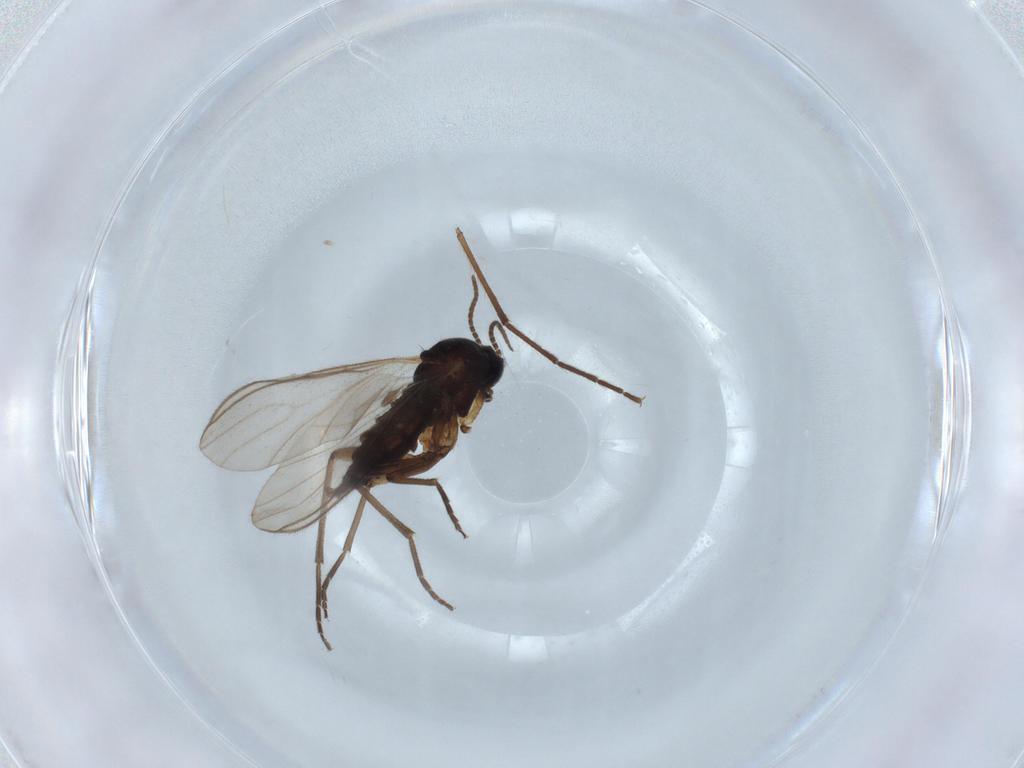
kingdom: Animalia
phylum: Arthropoda
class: Insecta
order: Diptera
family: Sciaridae
